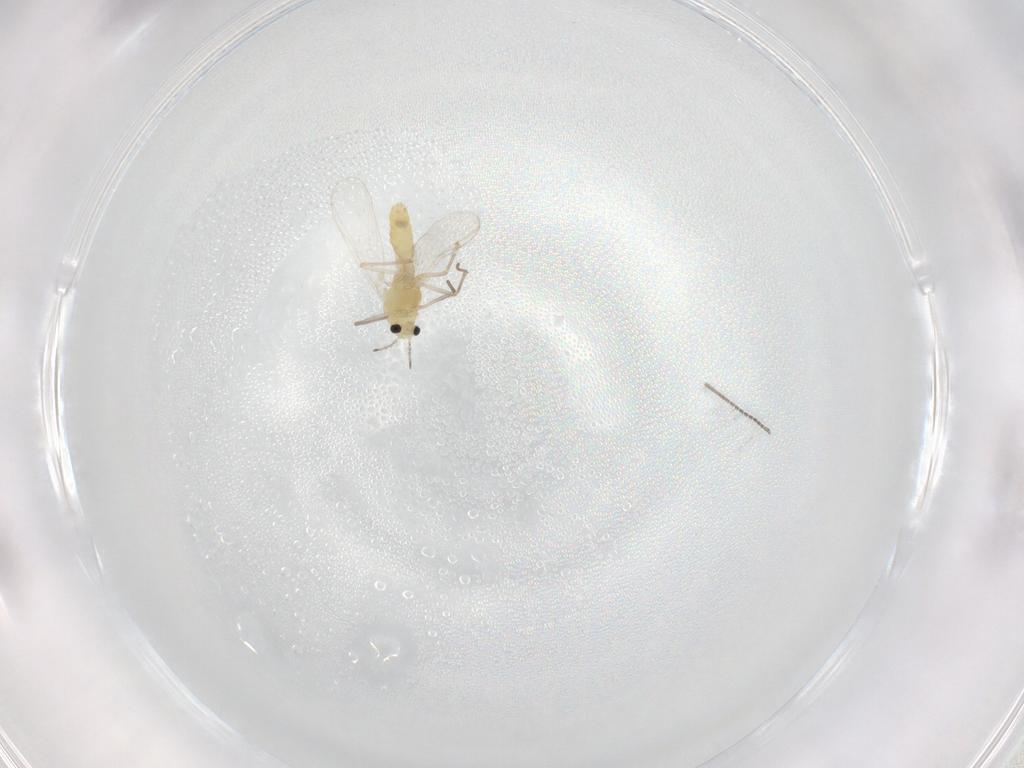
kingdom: Animalia
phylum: Arthropoda
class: Insecta
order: Diptera
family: Chironomidae
